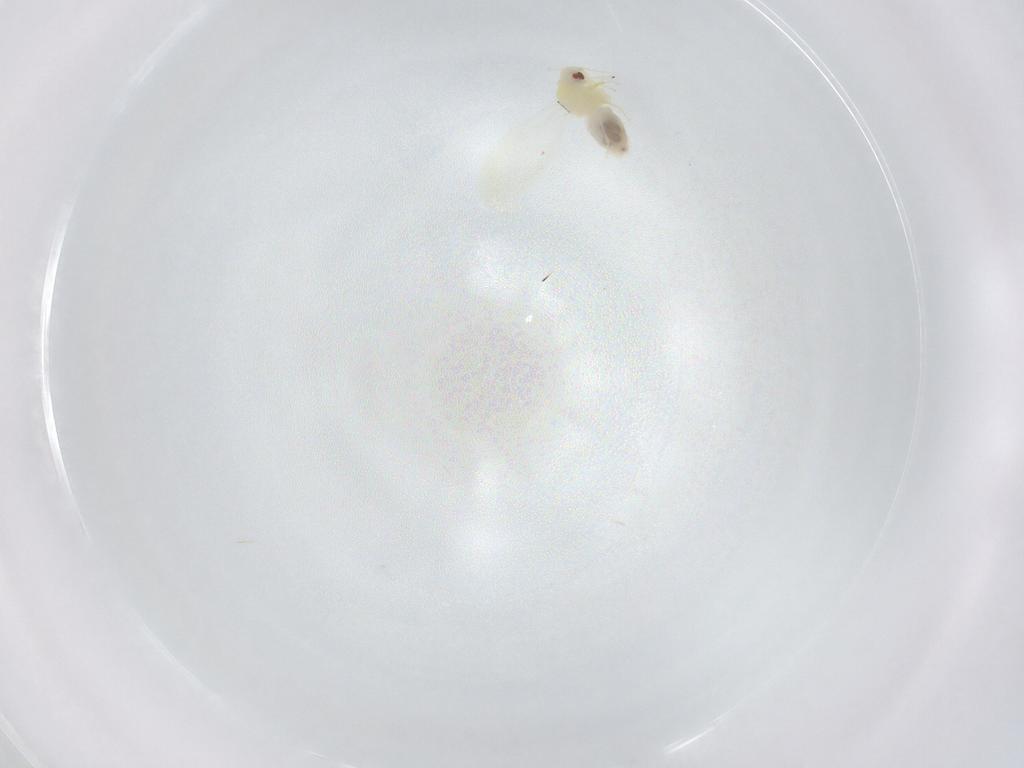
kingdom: Animalia
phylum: Arthropoda
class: Insecta
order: Hemiptera
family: Aleyrodidae
